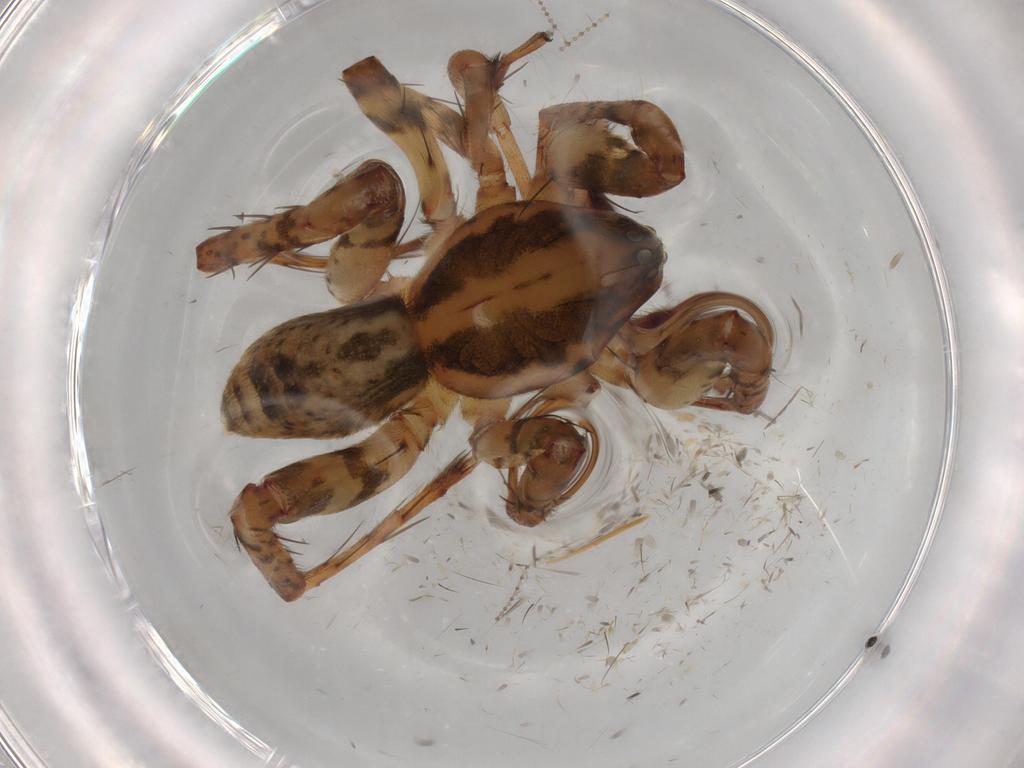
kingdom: Animalia
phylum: Arthropoda
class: Arachnida
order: Araneae
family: Anyphaenidae
